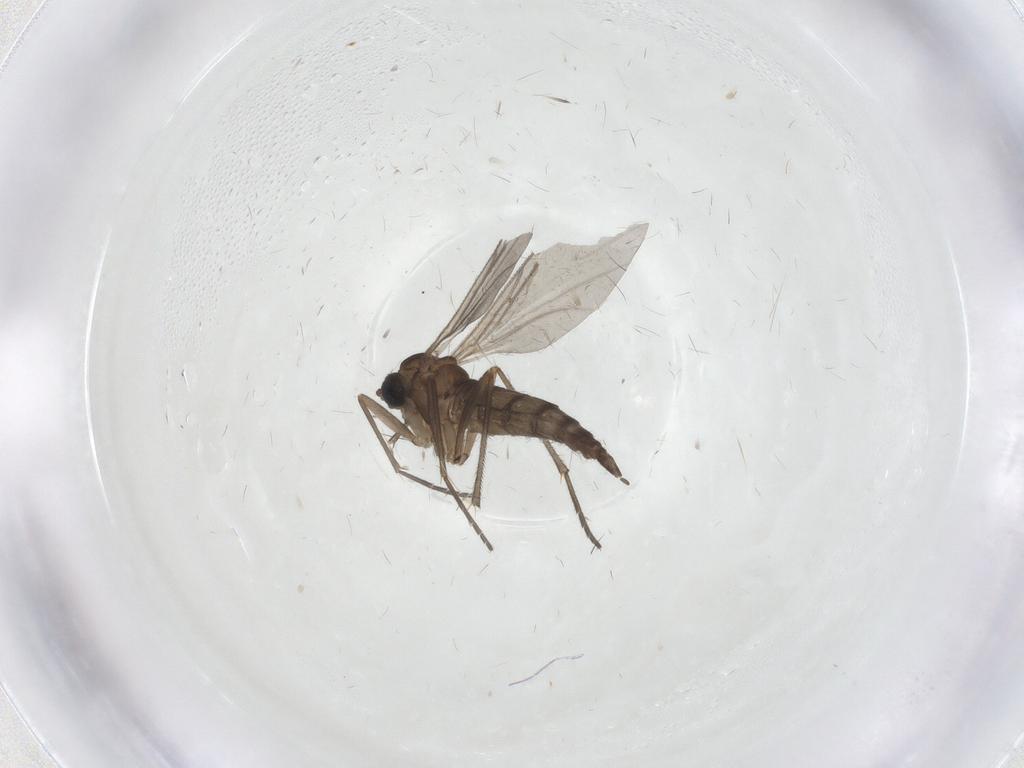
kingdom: Animalia
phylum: Arthropoda
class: Insecta
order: Diptera
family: Sciaridae
